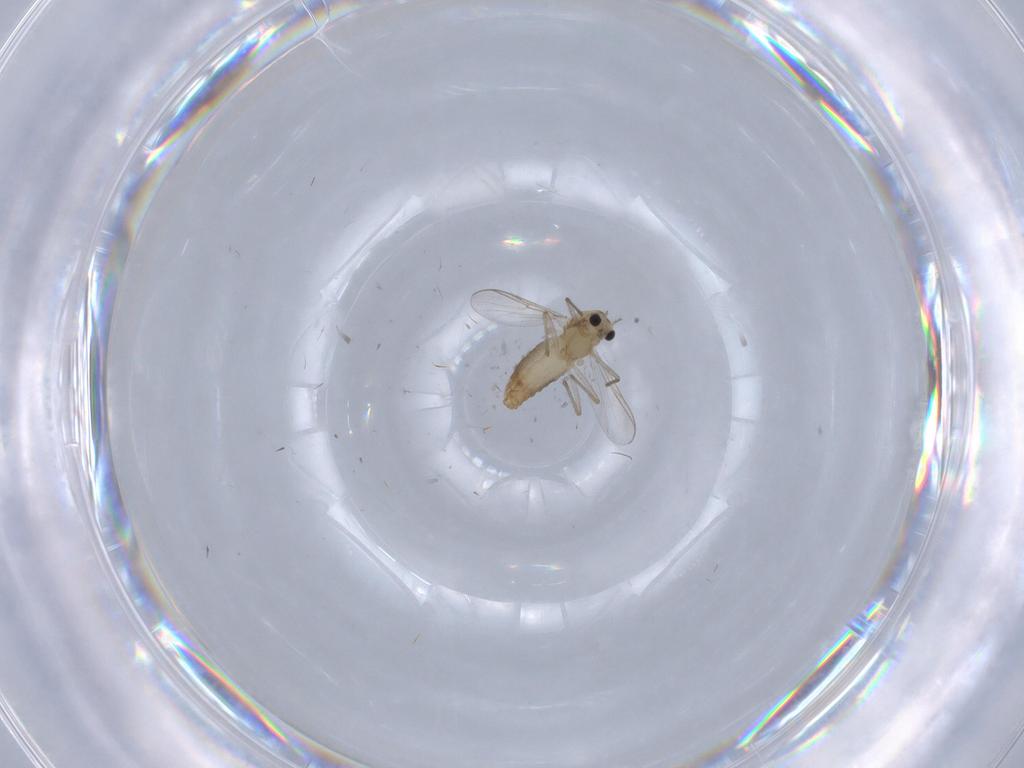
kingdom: Animalia
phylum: Arthropoda
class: Insecta
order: Diptera
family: Chironomidae
